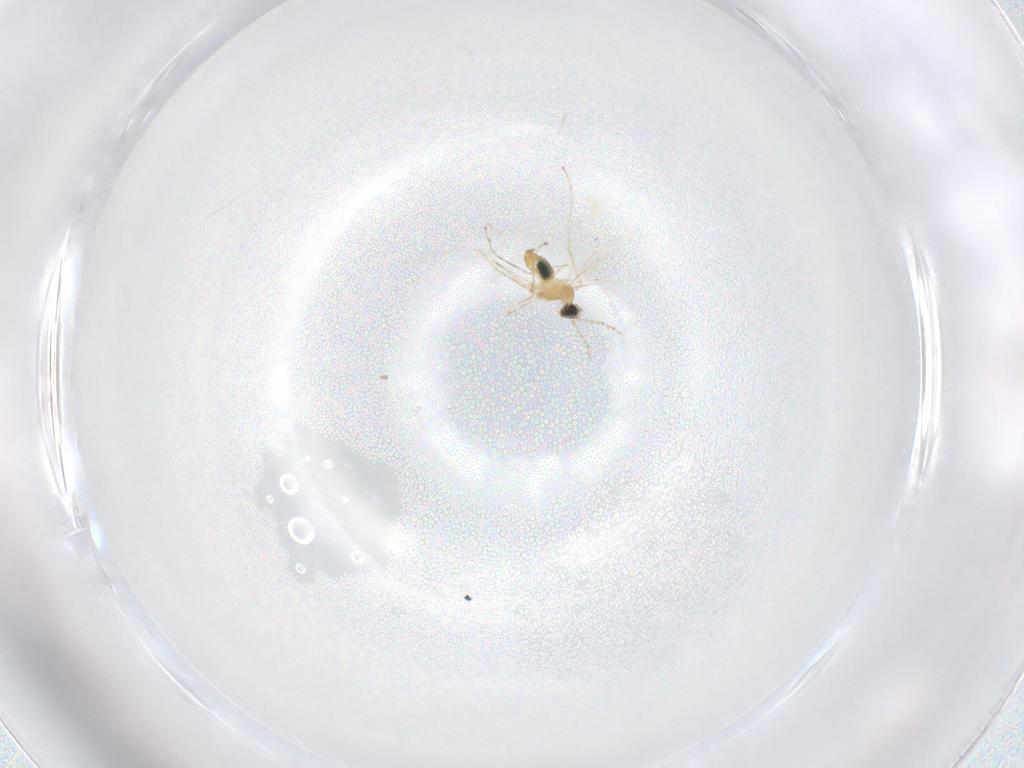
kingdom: Animalia
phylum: Arthropoda
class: Insecta
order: Diptera
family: Cecidomyiidae
